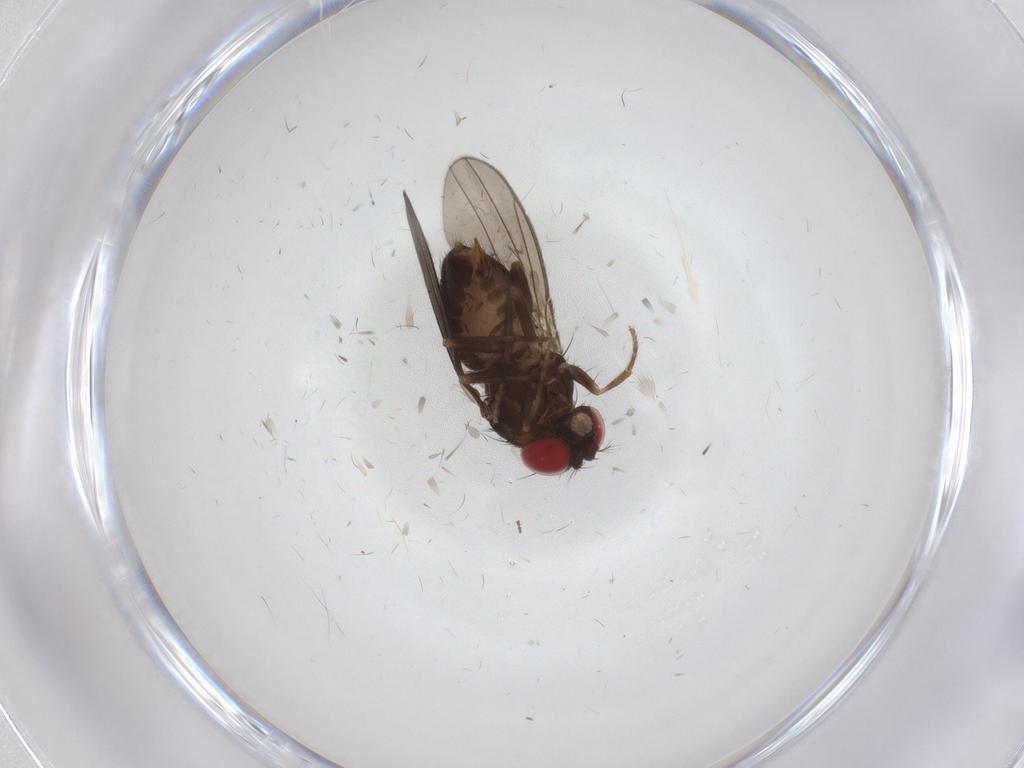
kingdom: Animalia
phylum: Arthropoda
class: Insecta
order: Diptera
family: Drosophilidae
